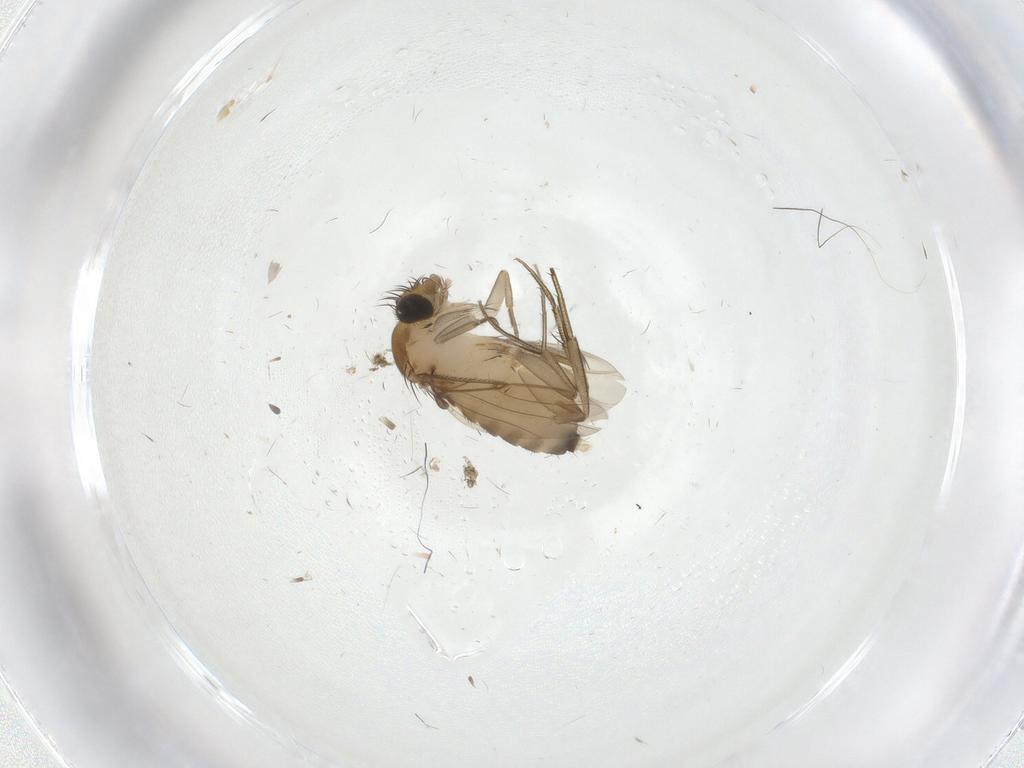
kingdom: Animalia
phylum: Arthropoda
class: Insecta
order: Diptera
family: Phoridae
